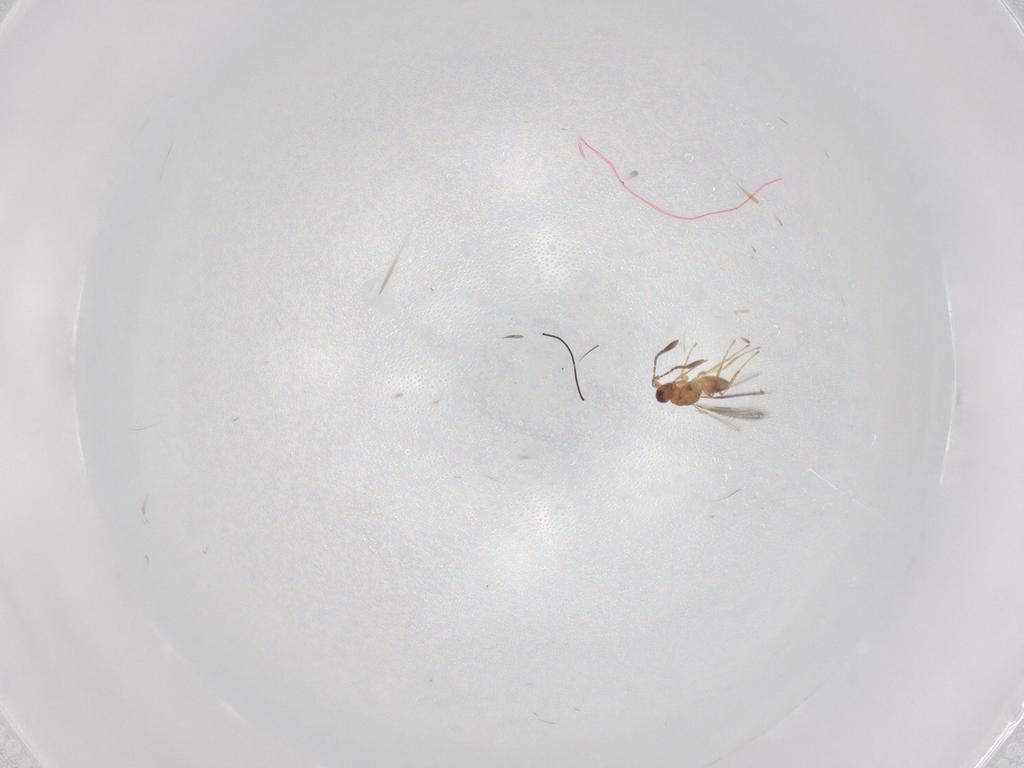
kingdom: Animalia
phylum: Arthropoda
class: Insecta
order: Hymenoptera
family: Mymaridae
